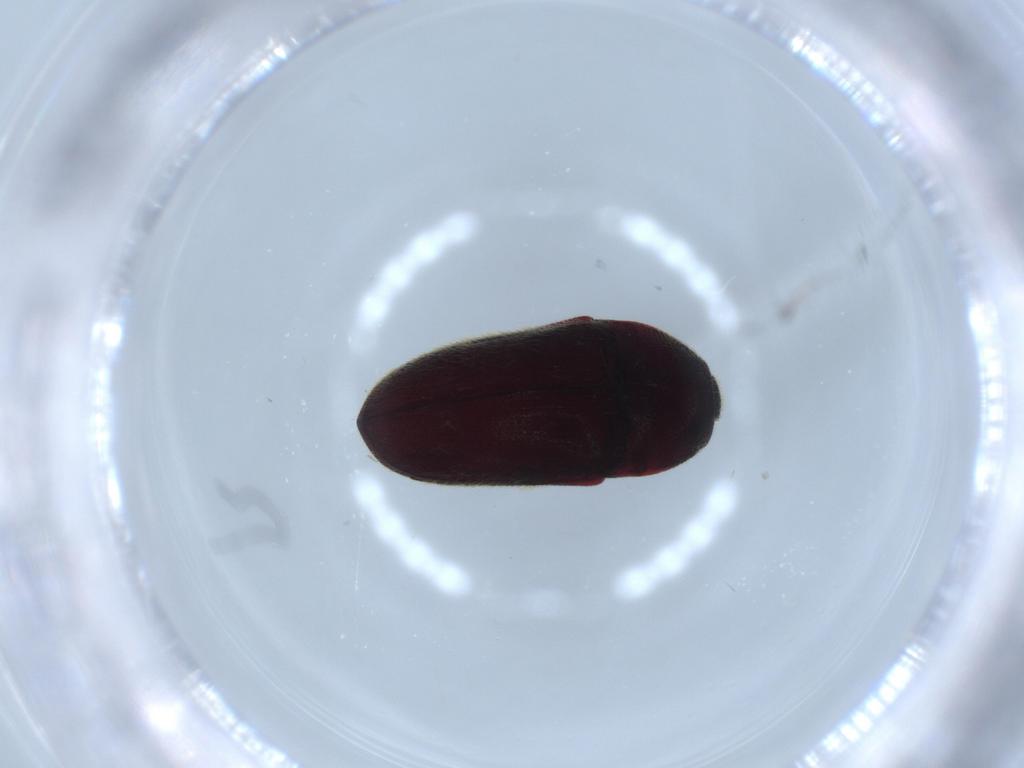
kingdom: Animalia
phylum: Arthropoda
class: Insecta
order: Coleoptera
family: Throscidae
